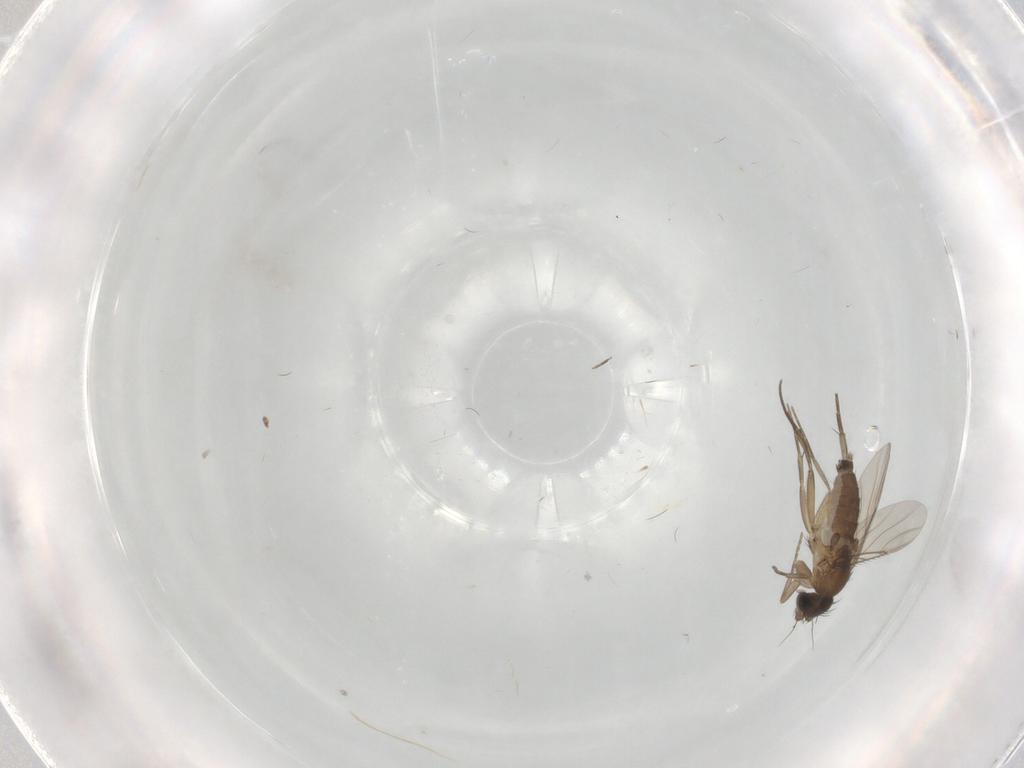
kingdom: Animalia
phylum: Arthropoda
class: Insecta
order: Diptera
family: Phoridae
